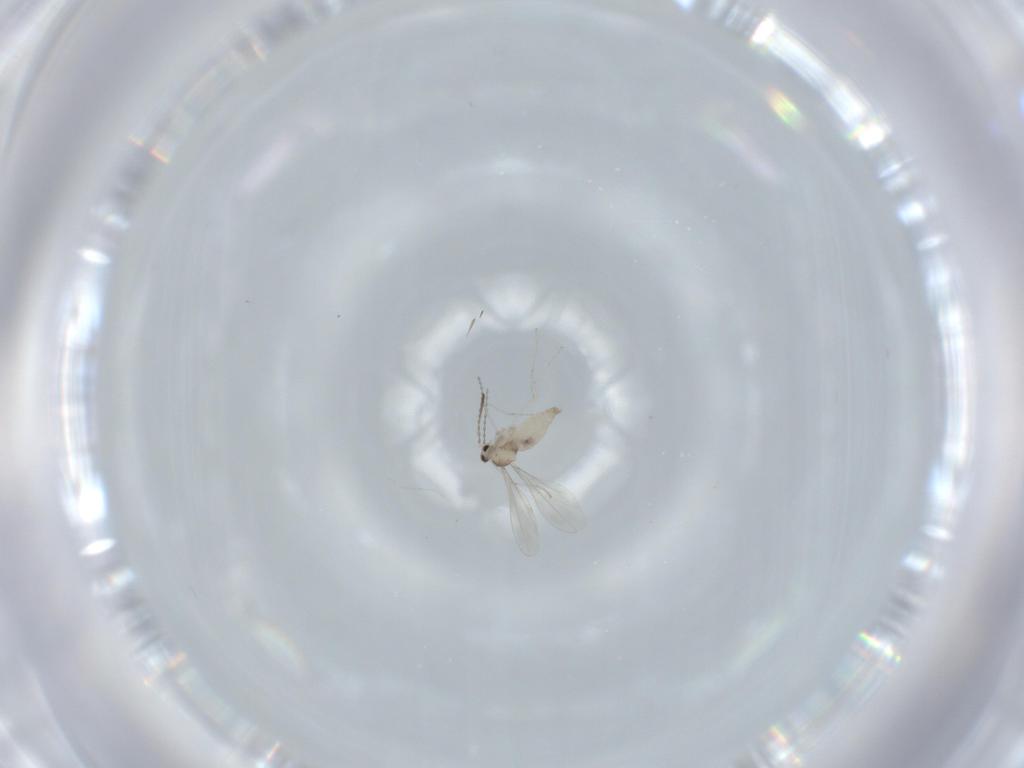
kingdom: Animalia
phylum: Arthropoda
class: Insecta
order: Diptera
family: Cecidomyiidae
